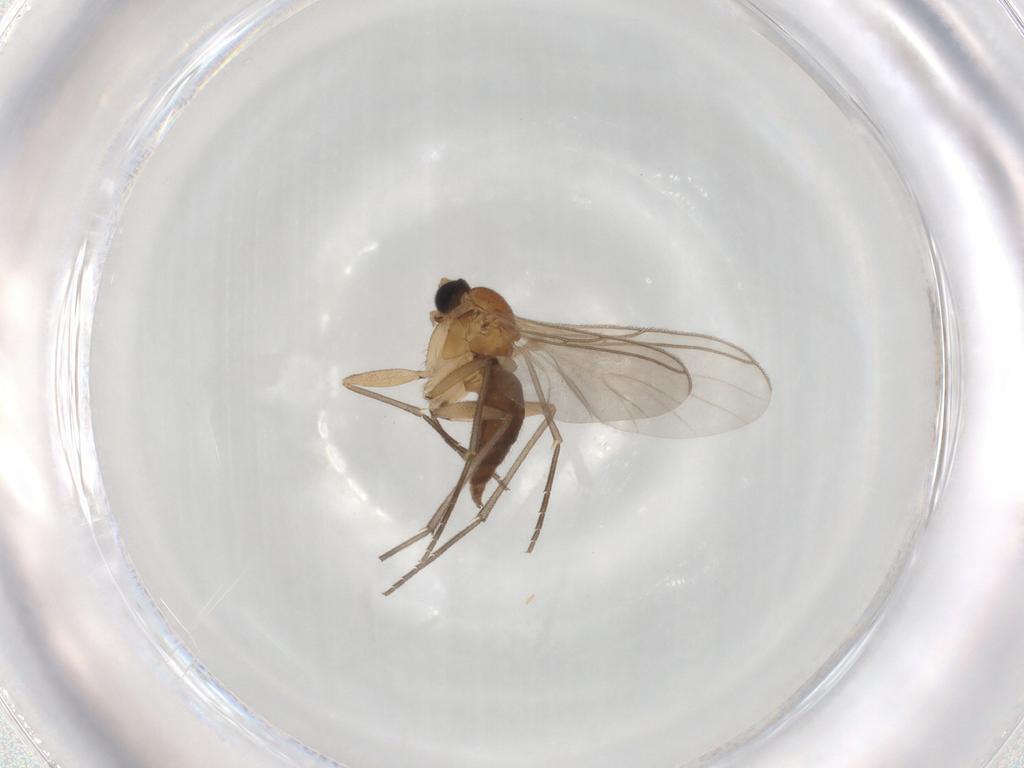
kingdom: Animalia
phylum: Arthropoda
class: Insecta
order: Diptera
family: Sciaridae
